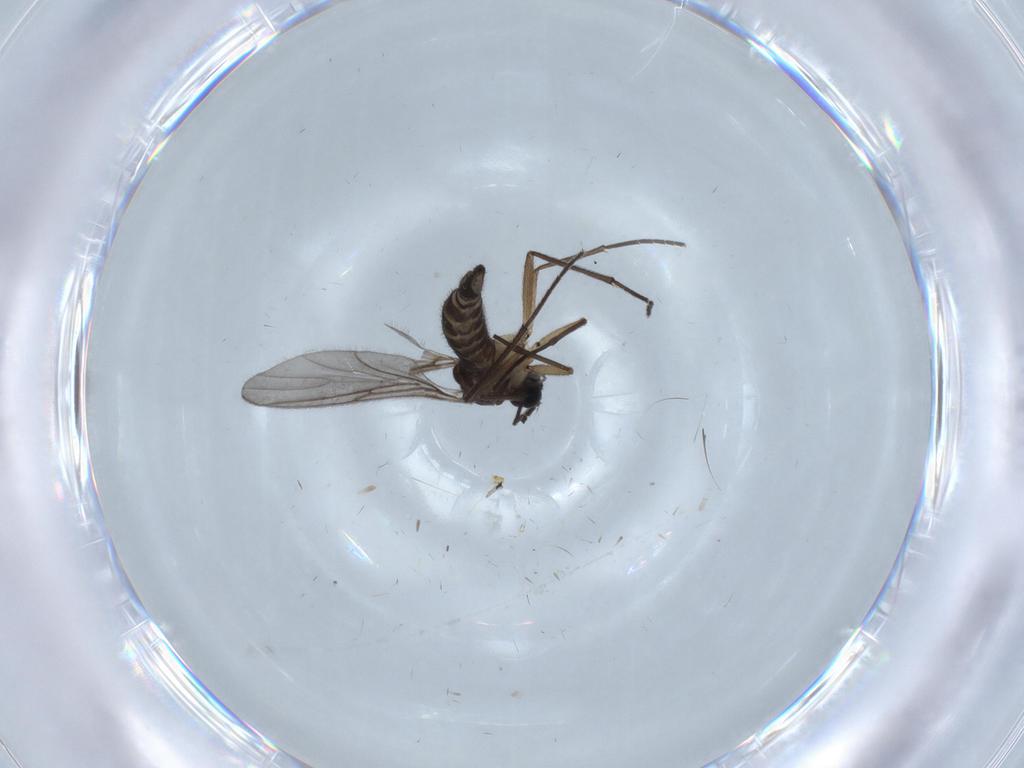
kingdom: Animalia
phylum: Arthropoda
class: Insecta
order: Diptera
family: Sciaridae
